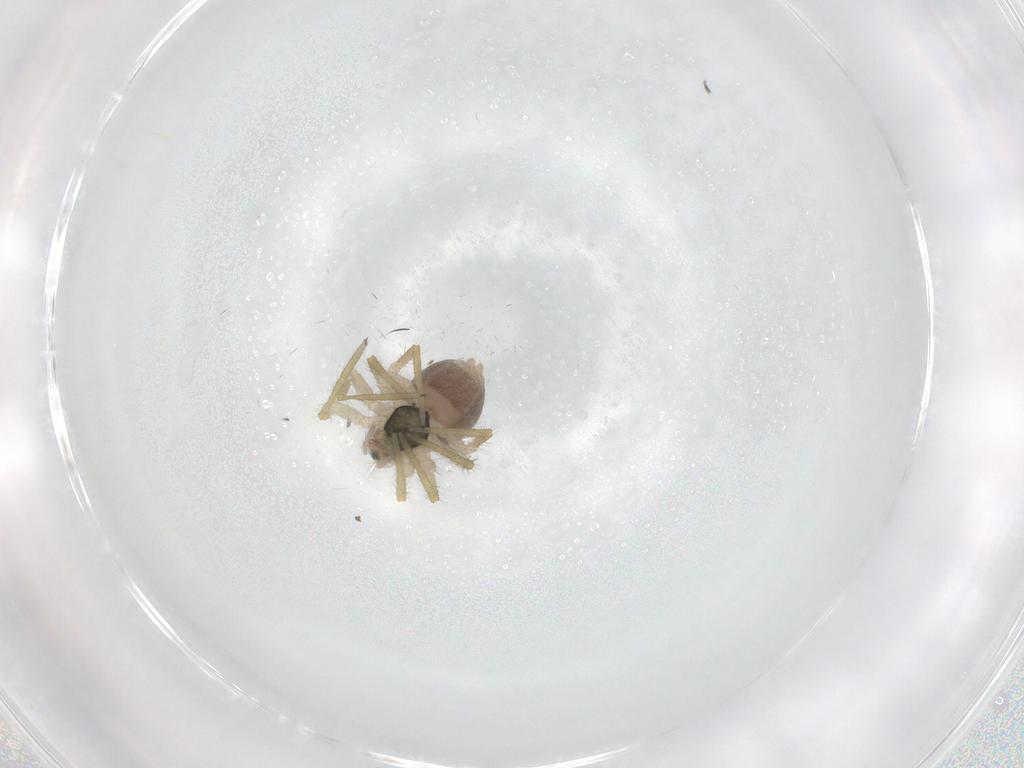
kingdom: Animalia
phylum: Arthropoda
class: Arachnida
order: Araneae
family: Linyphiidae
